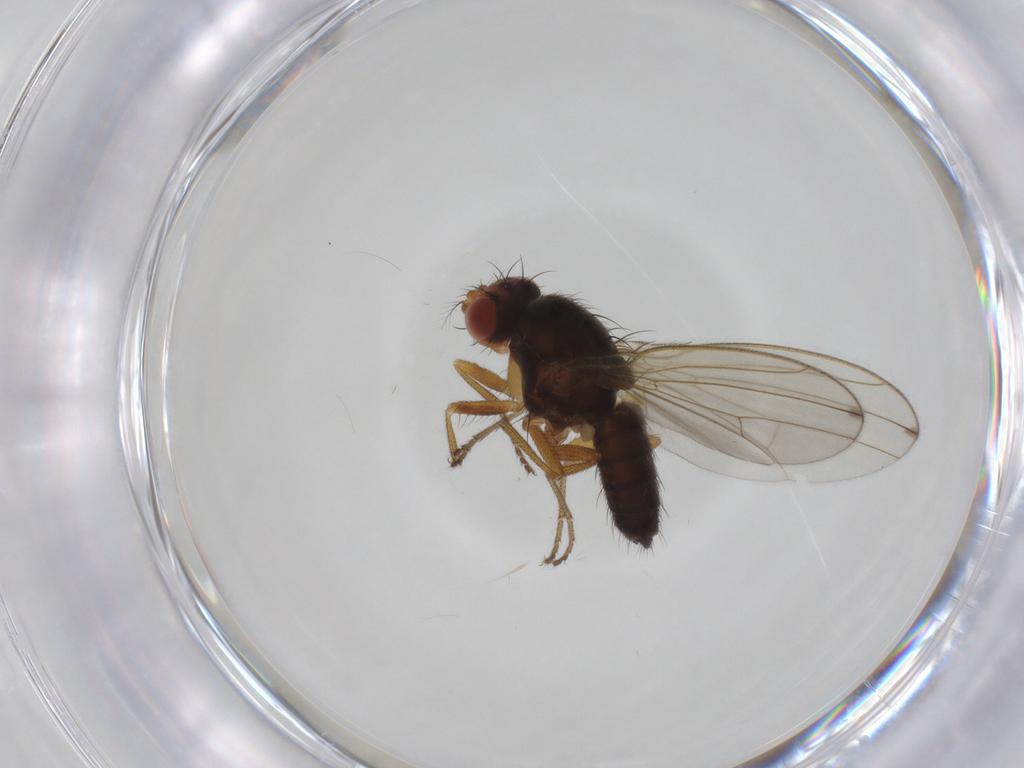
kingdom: Animalia
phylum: Arthropoda
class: Insecta
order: Diptera
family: Drosophilidae
